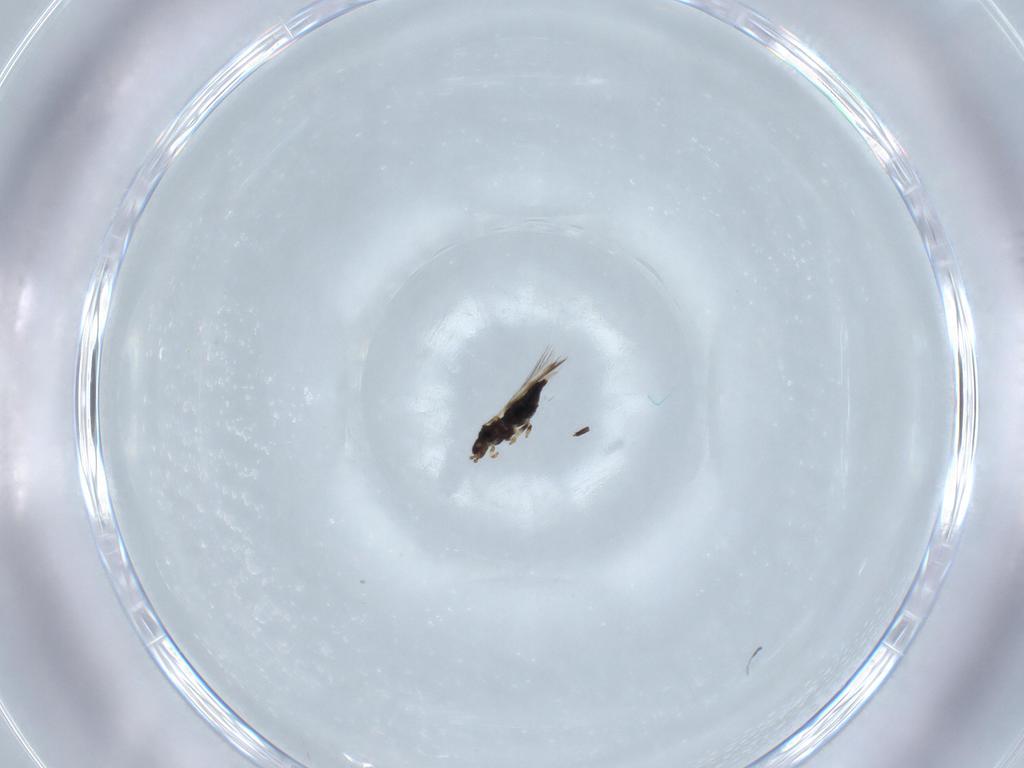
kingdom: Animalia
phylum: Arthropoda
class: Insecta
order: Thysanoptera
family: Thripidae
